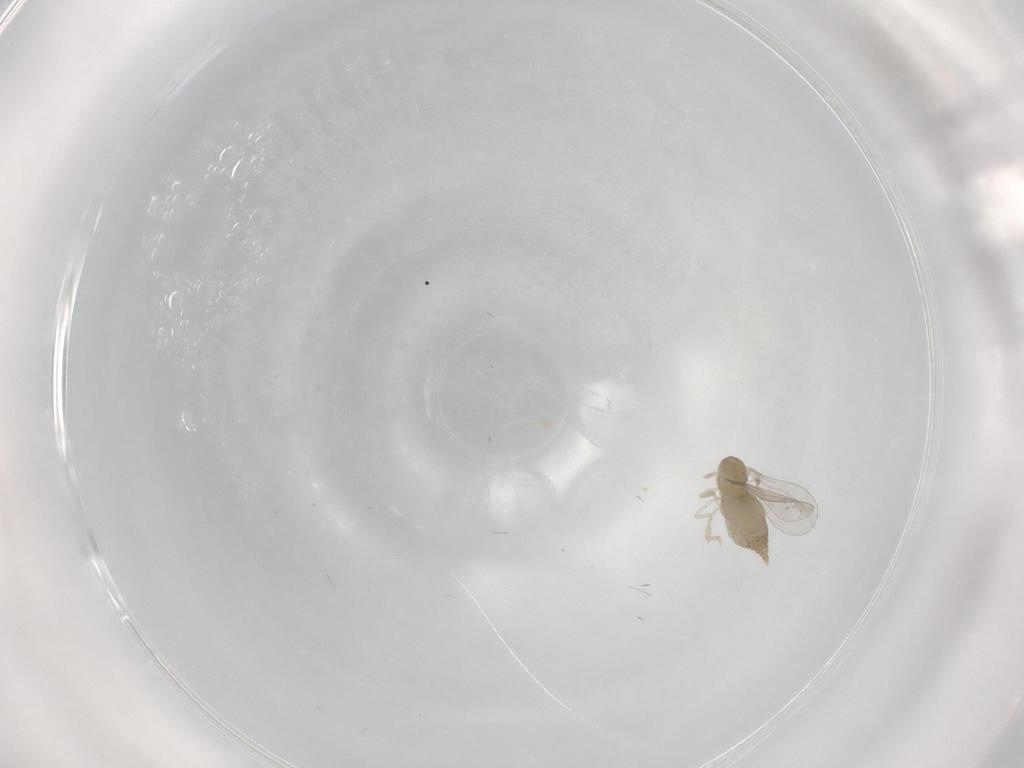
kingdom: Animalia
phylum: Arthropoda
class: Insecta
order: Diptera
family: Cecidomyiidae
